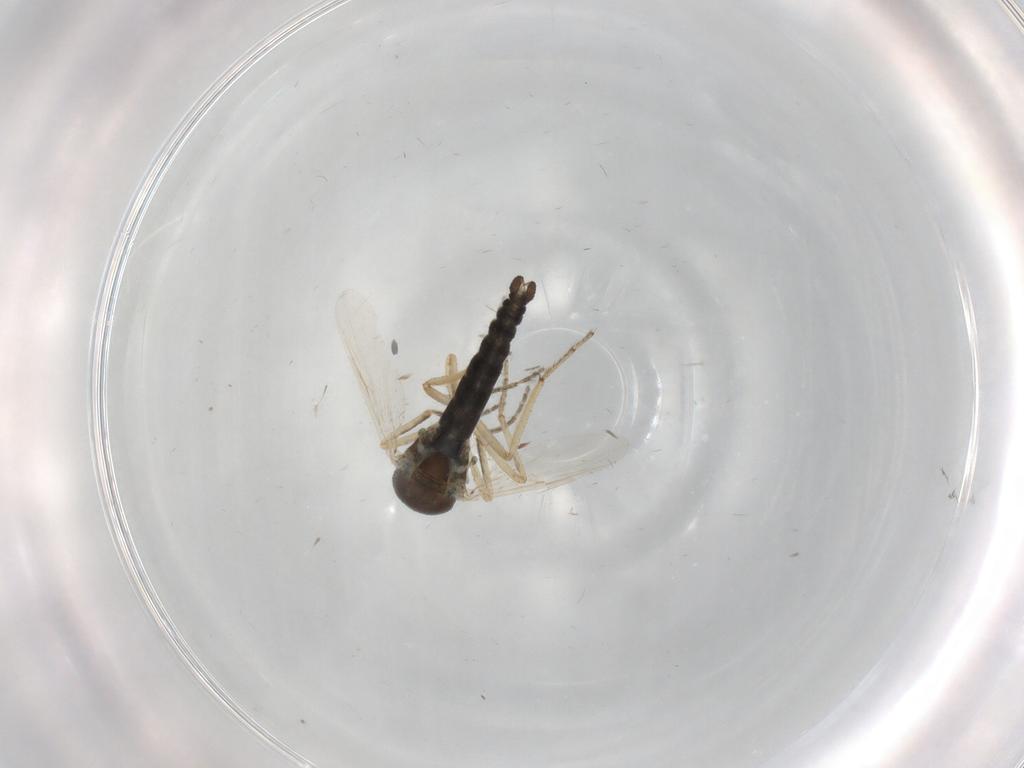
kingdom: Animalia
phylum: Arthropoda
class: Insecta
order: Diptera
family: Ceratopogonidae
